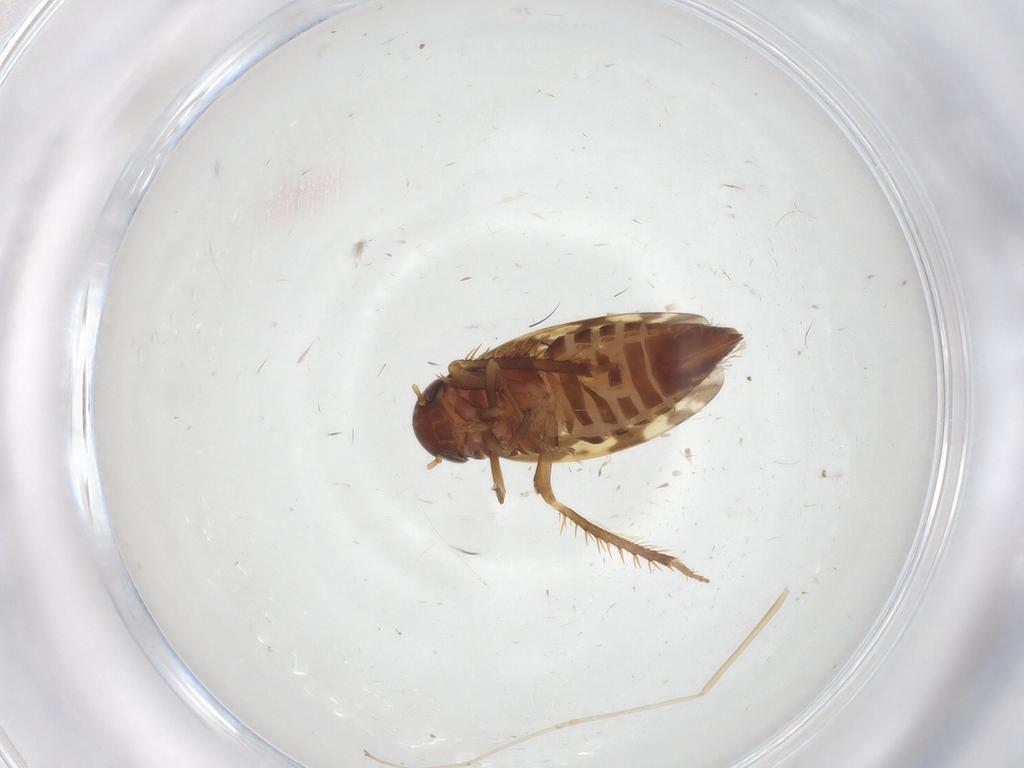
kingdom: Animalia
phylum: Arthropoda
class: Insecta
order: Hemiptera
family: Cicadellidae
